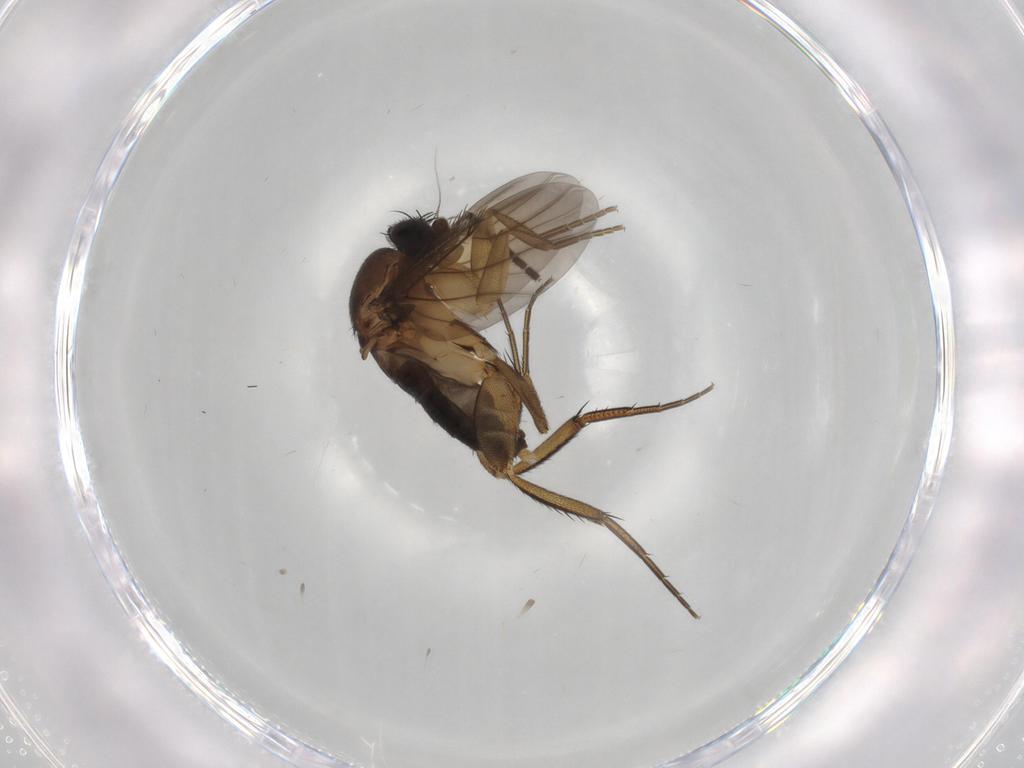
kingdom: Animalia
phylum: Arthropoda
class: Insecta
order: Diptera
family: Phoridae
